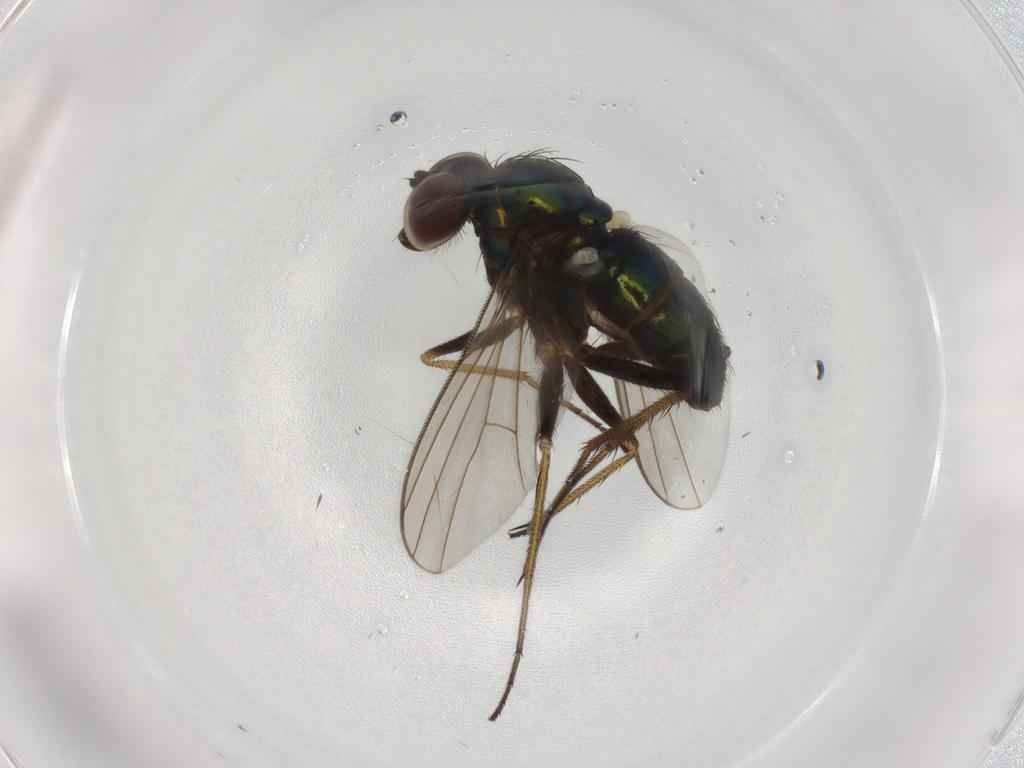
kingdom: Animalia
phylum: Arthropoda
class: Insecta
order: Diptera
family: Dolichopodidae
